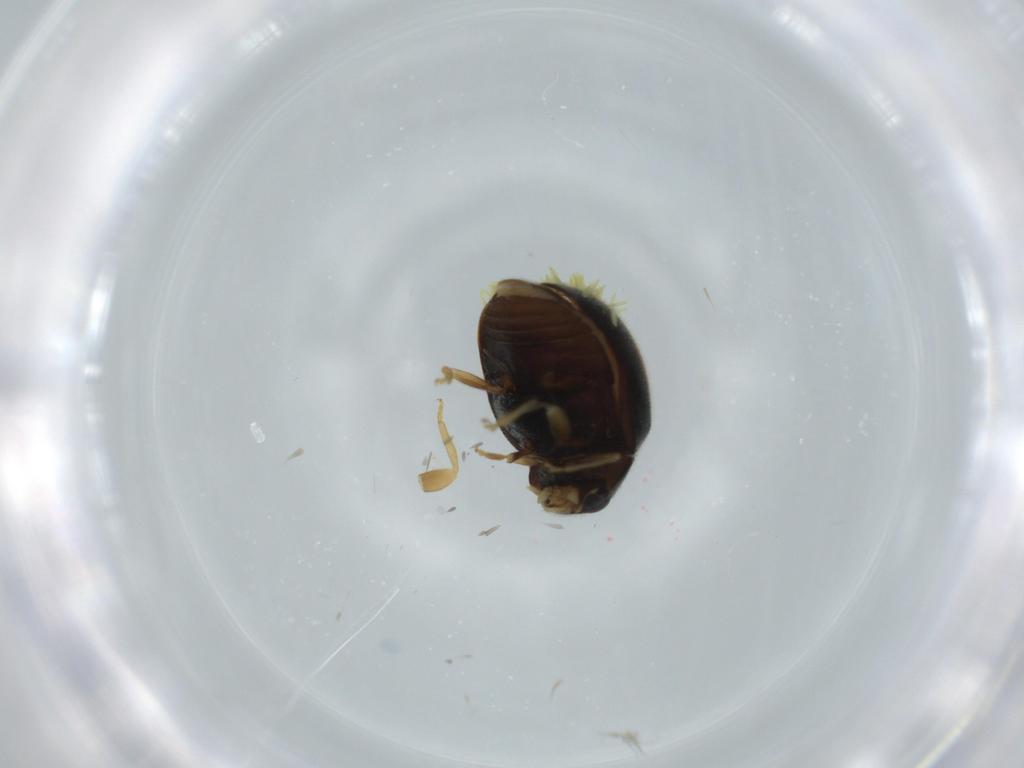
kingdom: Animalia
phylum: Arthropoda
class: Insecta
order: Coleoptera
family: Coccinellidae
